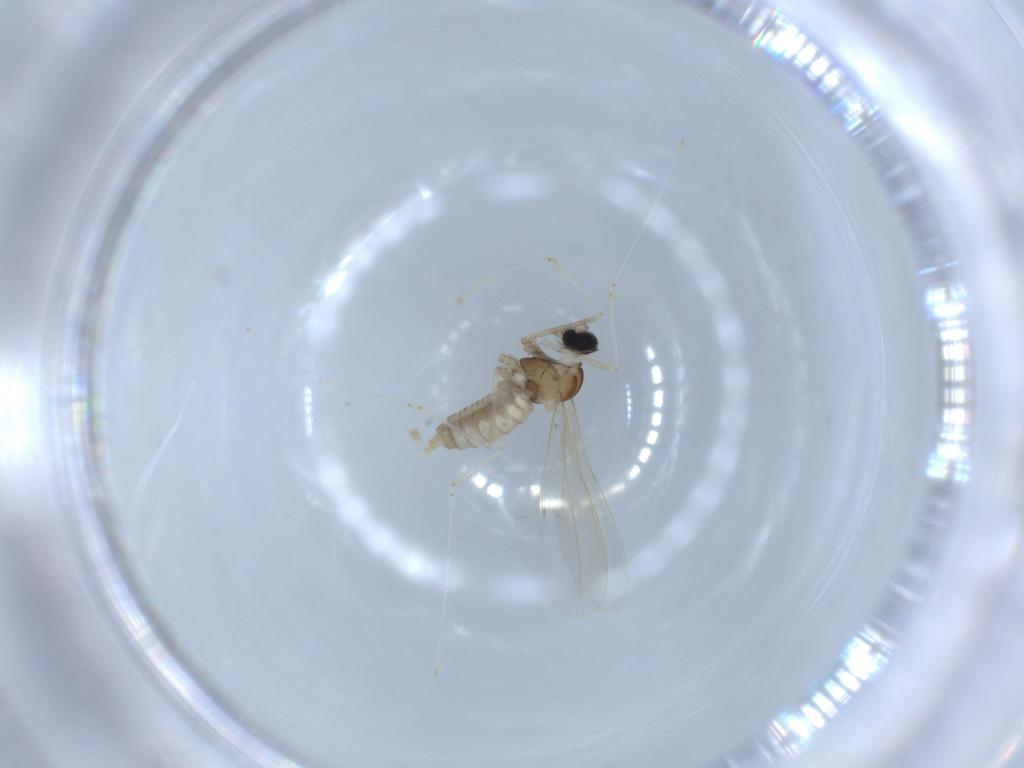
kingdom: Animalia
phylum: Arthropoda
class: Insecta
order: Diptera
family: Cecidomyiidae
